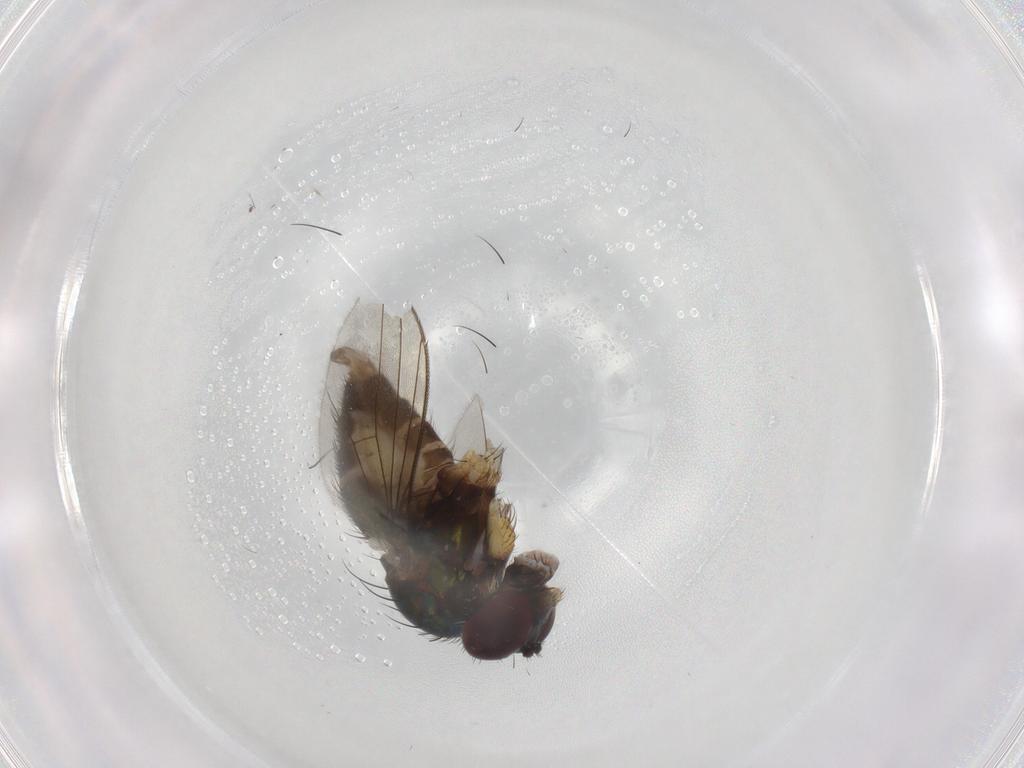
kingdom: Animalia
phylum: Arthropoda
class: Insecta
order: Diptera
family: Dolichopodidae
